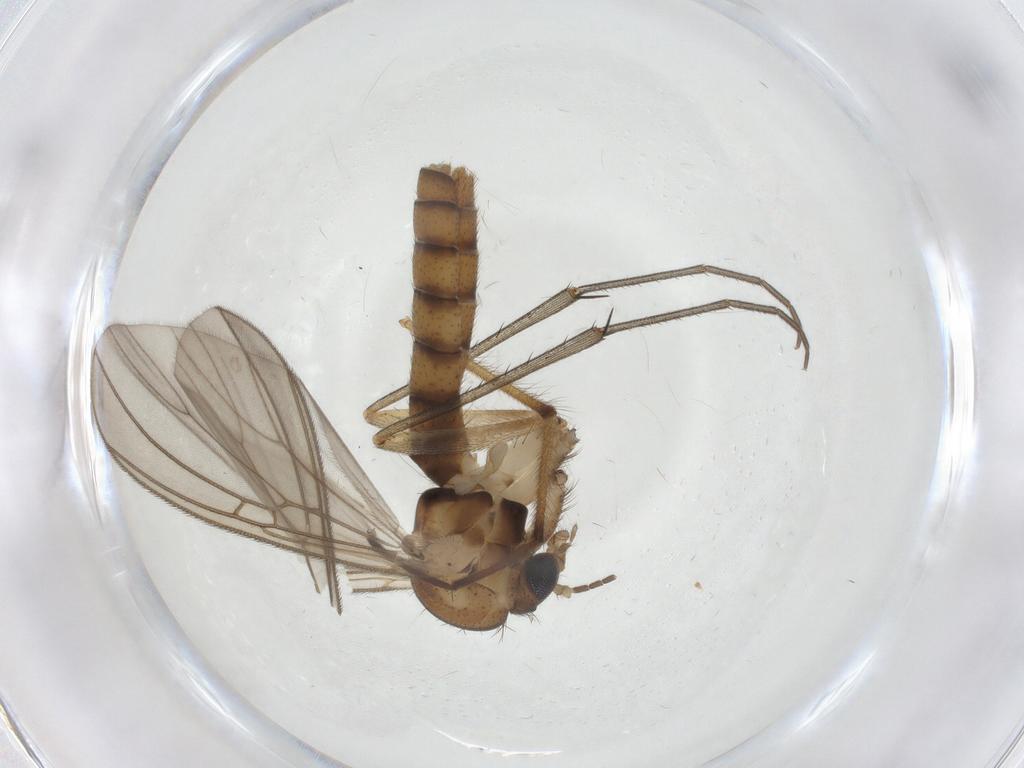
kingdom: Animalia
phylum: Arthropoda
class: Insecta
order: Diptera
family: Mycetophilidae
